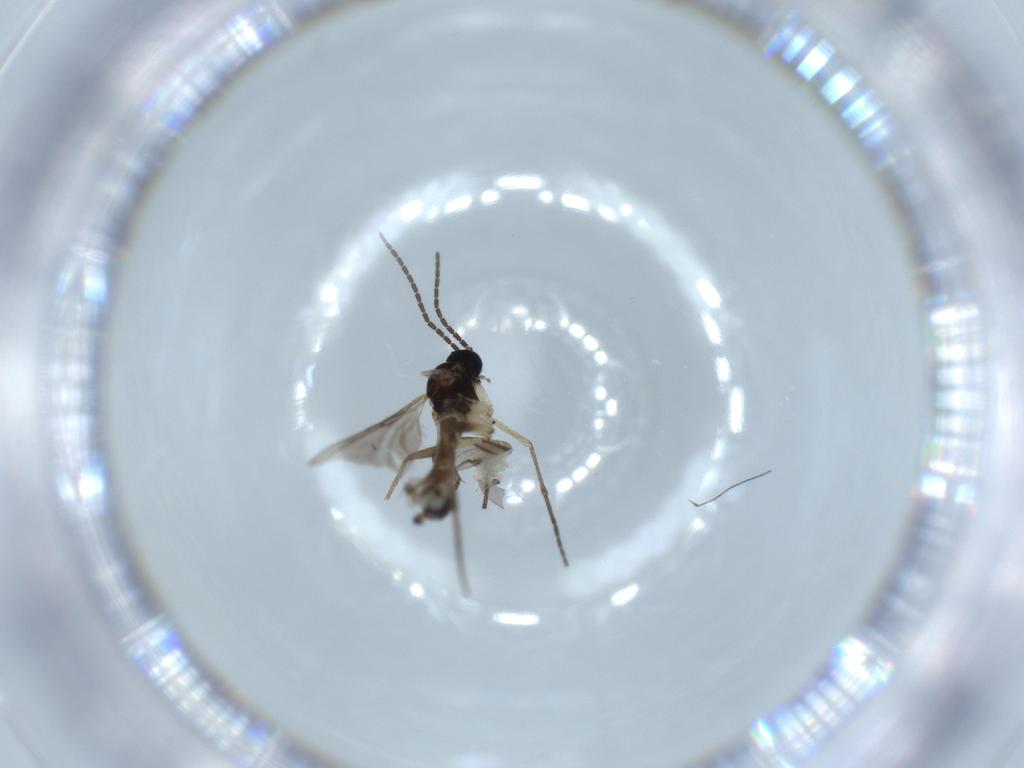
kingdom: Animalia
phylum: Arthropoda
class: Insecta
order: Diptera
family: Sciaridae
